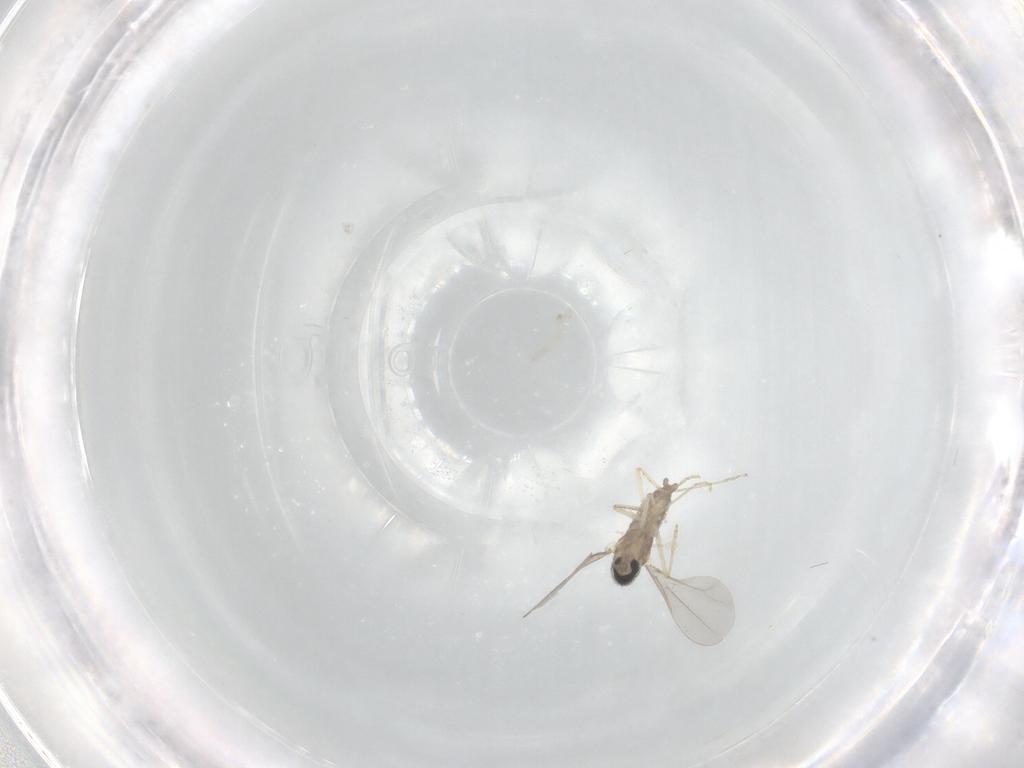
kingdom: Animalia
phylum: Arthropoda
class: Insecta
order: Diptera
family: Cecidomyiidae
